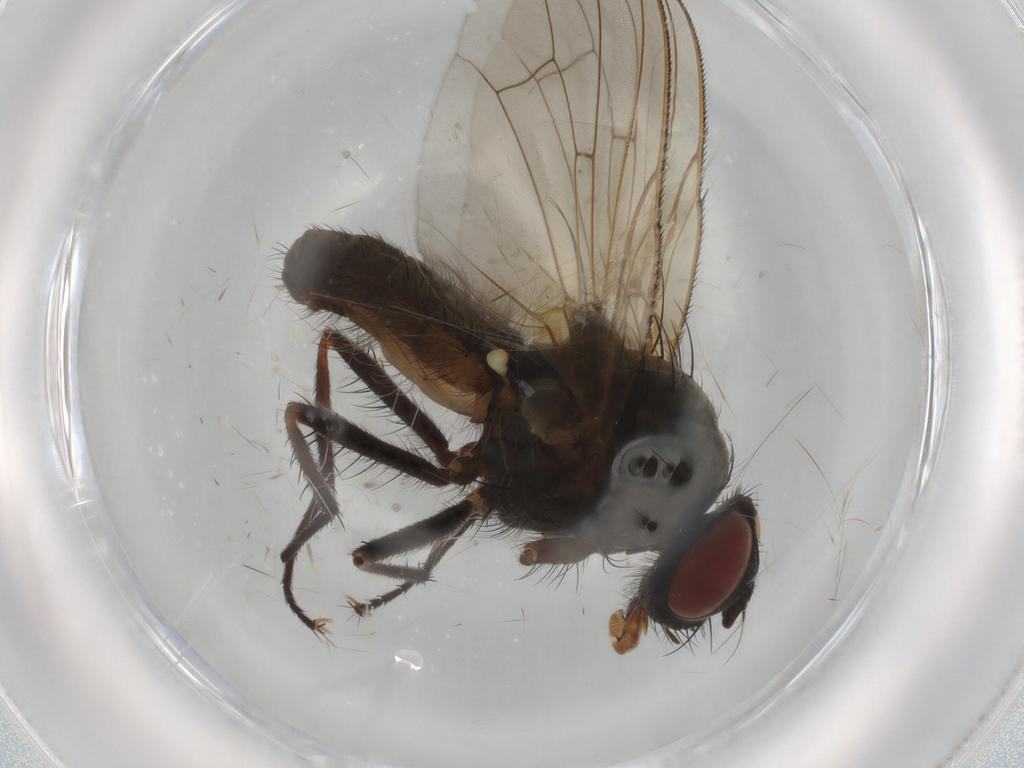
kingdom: Animalia
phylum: Arthropoda
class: Insecta
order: Diptera
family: Anthomyiidae
